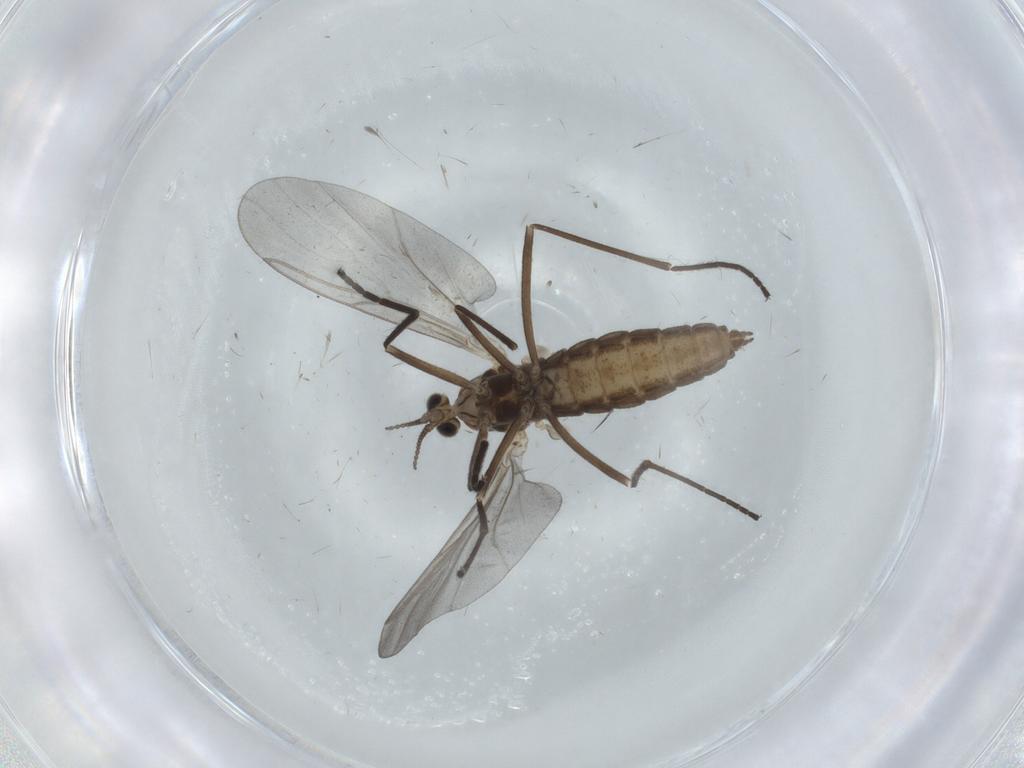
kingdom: Animalia
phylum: Arthropoda
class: Insecta
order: Diptera
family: Cecidomyiidae
